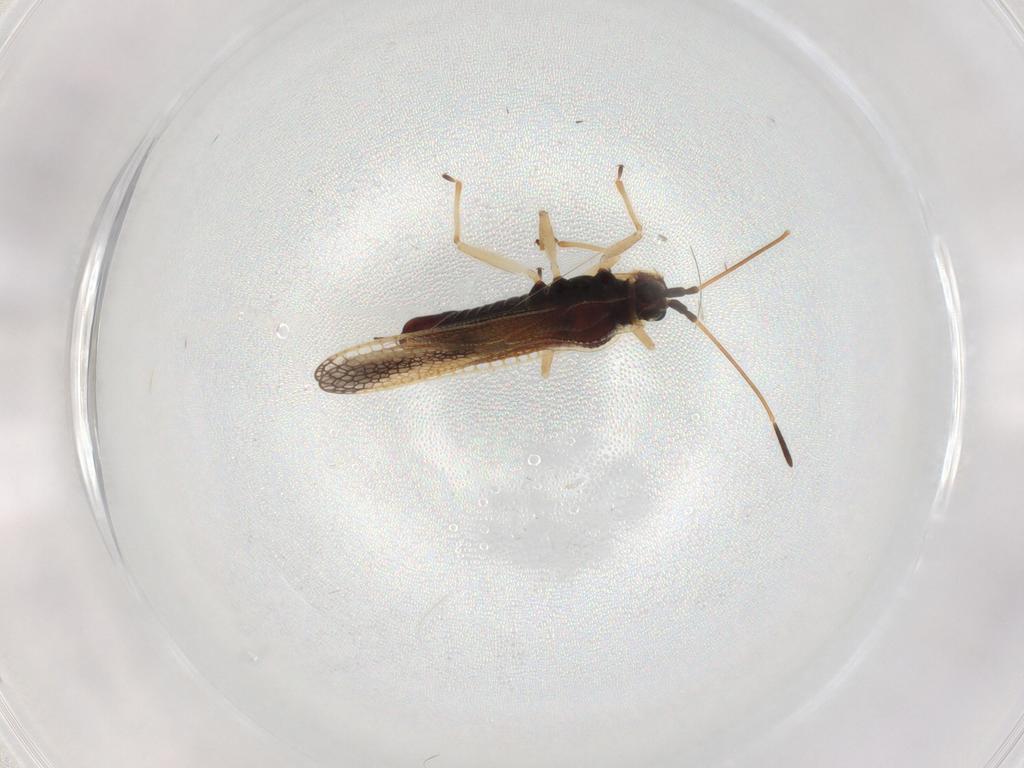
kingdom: Animalia
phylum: Arthropoda
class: Insecta
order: Hemiptera
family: Tingidae
